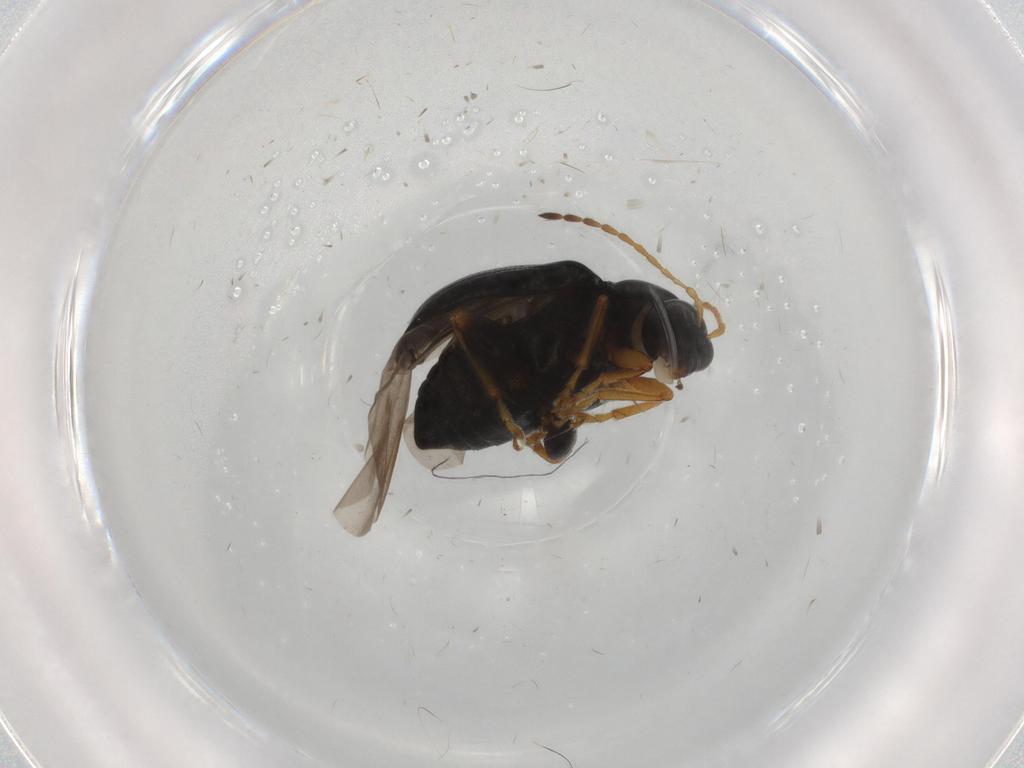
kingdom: Animalia
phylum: Arthropoda
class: Insecta
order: Coleoptera
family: Chrysomelidae
